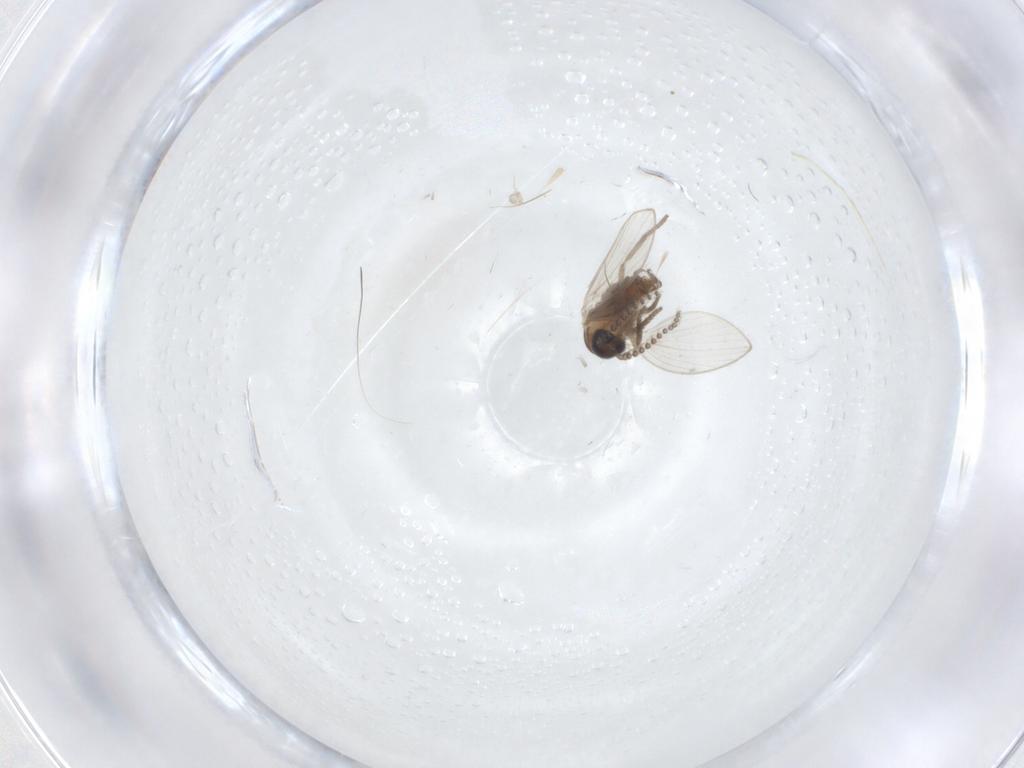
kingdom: Animalia
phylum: Arthropoda
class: Insecta
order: Diptera
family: Psychodidae
